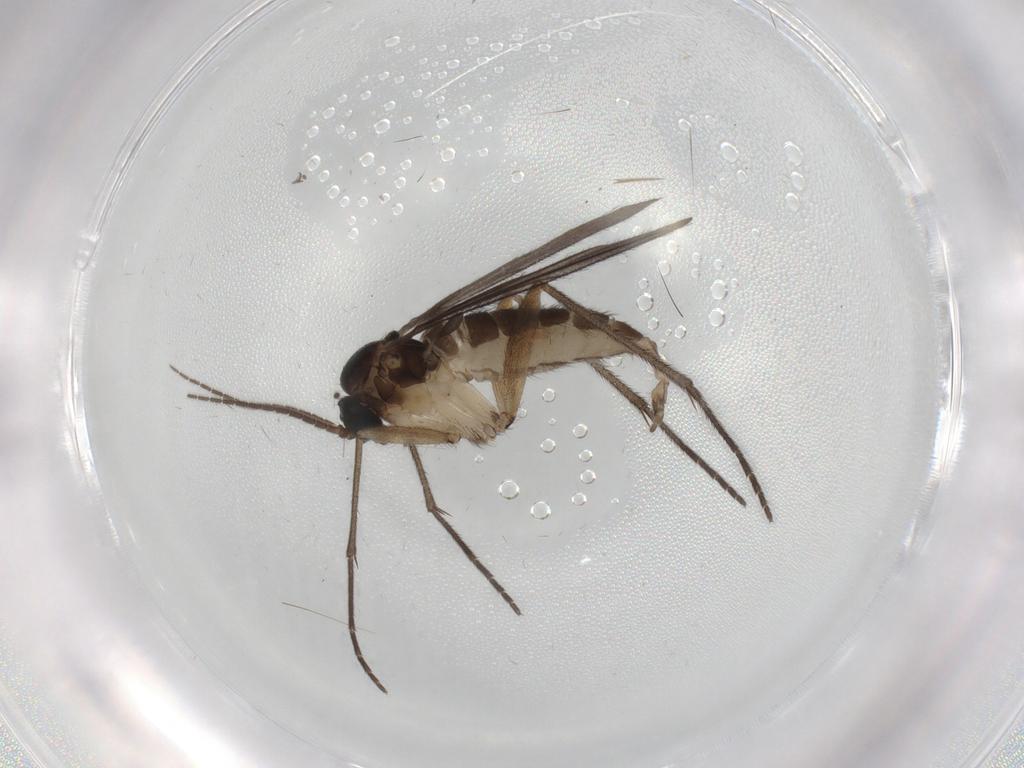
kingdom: Animalia
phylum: Arthropoda
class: Insecta
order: Diptera
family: Sciaridae
